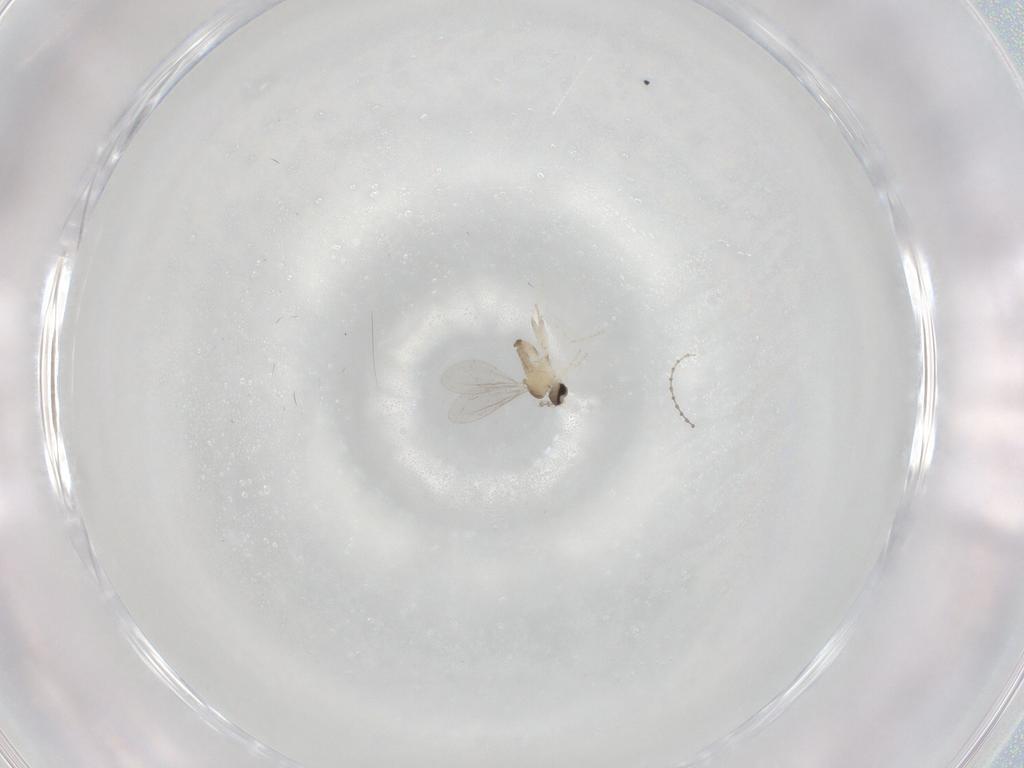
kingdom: Animalia
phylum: Arthropoda
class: Insecta
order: Diptera
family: Cecidomyiidae
